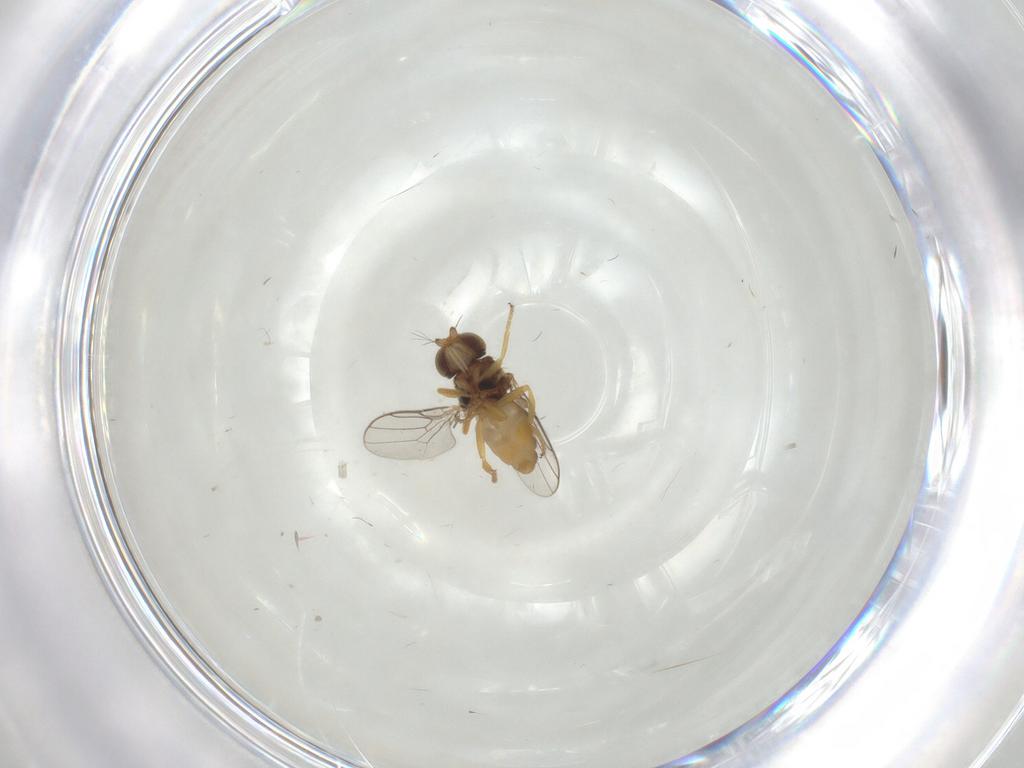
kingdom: Animalia
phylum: Arthropoda
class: Insecta
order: Diptera
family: Chloropidae
